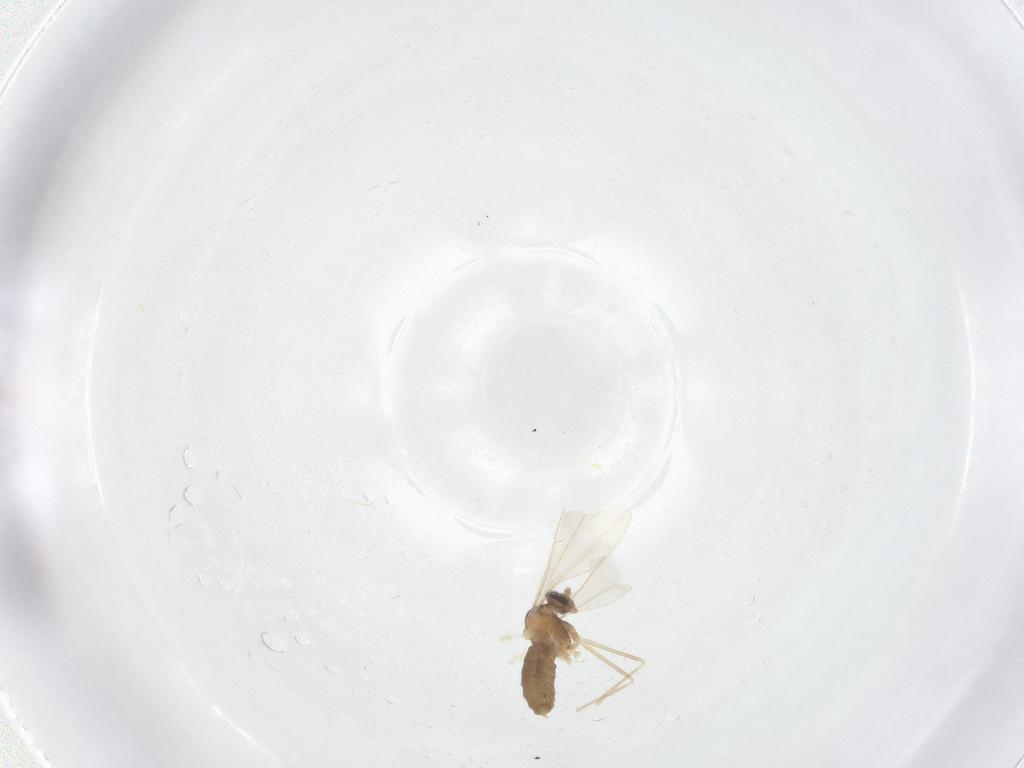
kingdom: Animalia
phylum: Arthropoda
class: Insecta
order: Diptera
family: Cecidomyiidae
